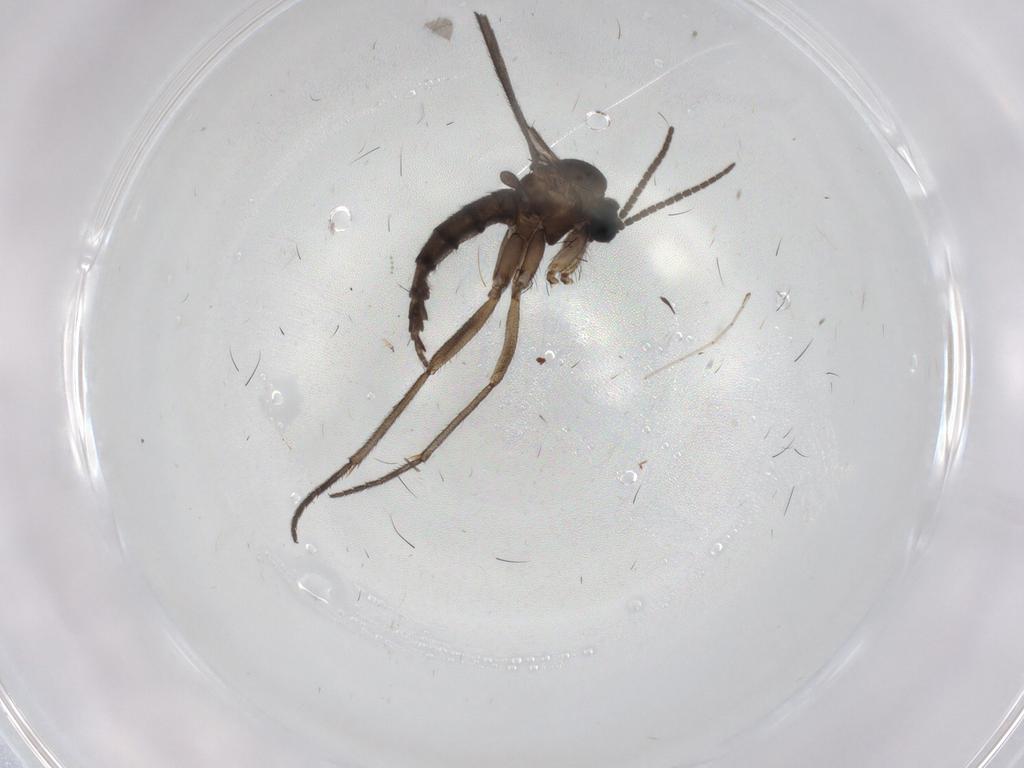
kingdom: Animalia
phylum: Arthropoda
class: Insecta
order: Diptera
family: Sciaridae
